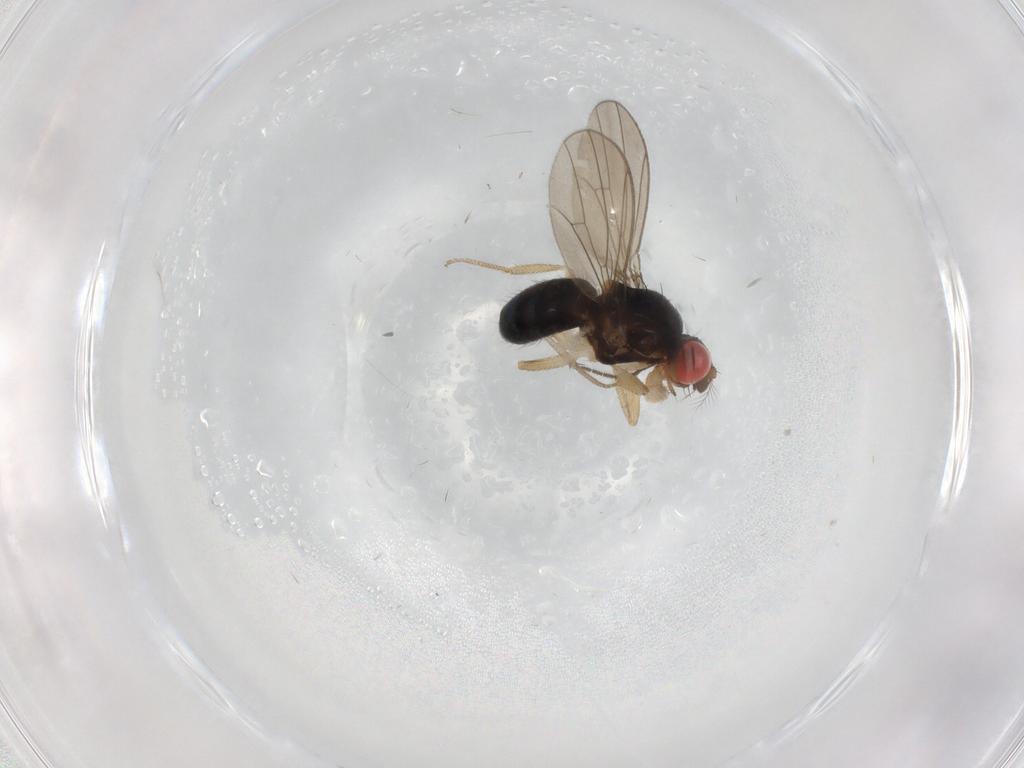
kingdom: Animalia
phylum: Arthropoda
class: Insecta
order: Diptera
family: Drosophilidae
